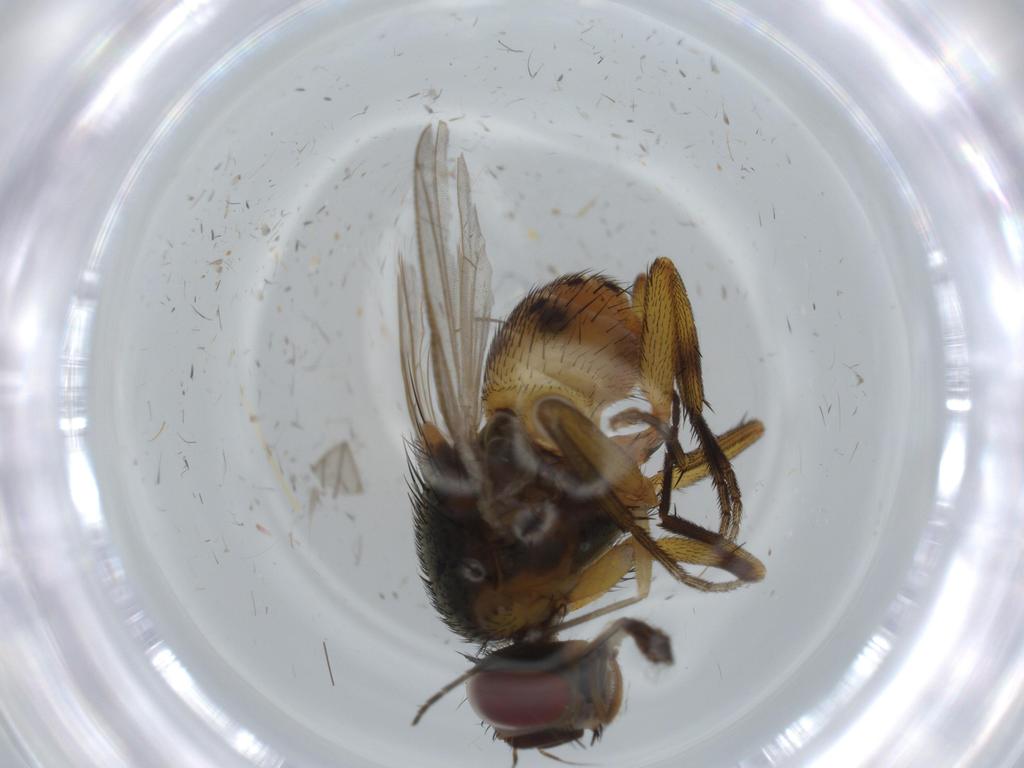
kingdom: Animalia
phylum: Arthropoda
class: Insecta
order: Diptera
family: Muscidae
